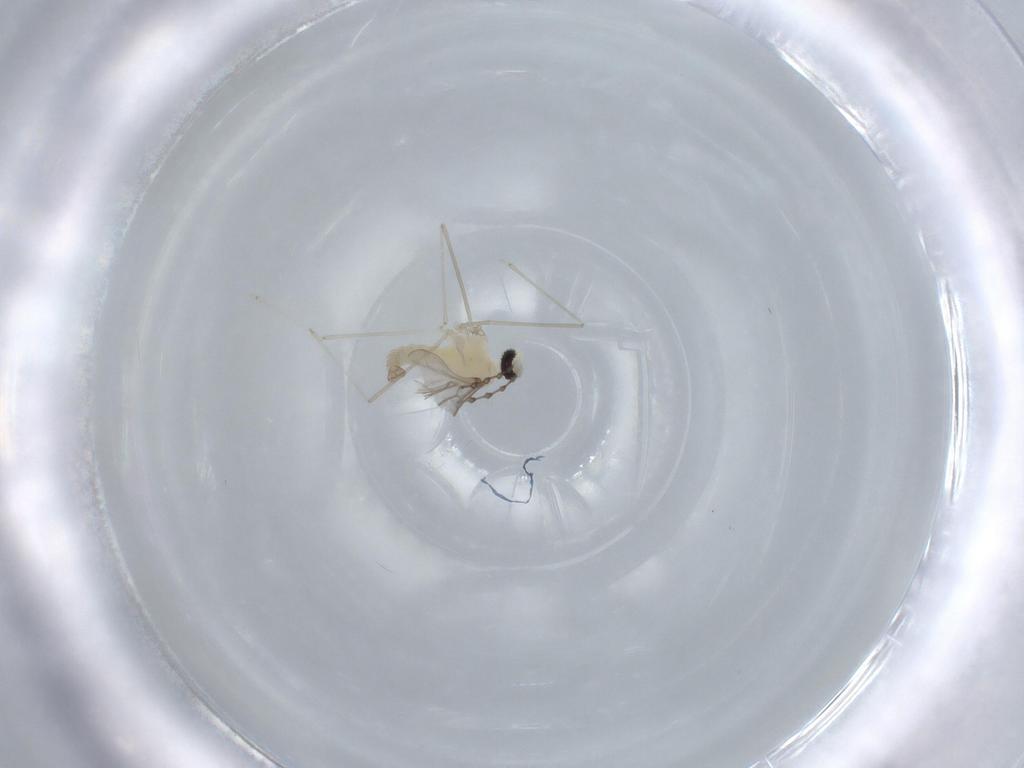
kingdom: Animalia
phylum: Arthropoda
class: Insecta
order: Diptera
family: Cecidomyiidae
